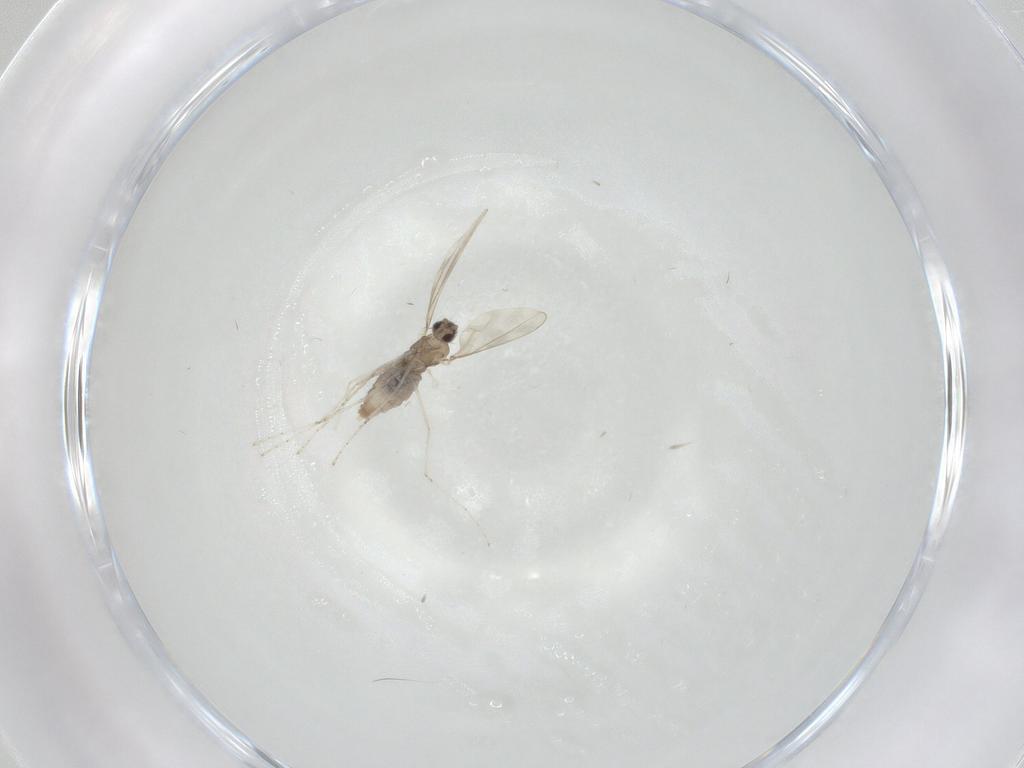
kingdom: Animalia
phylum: Arthropoda
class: Insecta
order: Diptera
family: Cecidomyiidae
